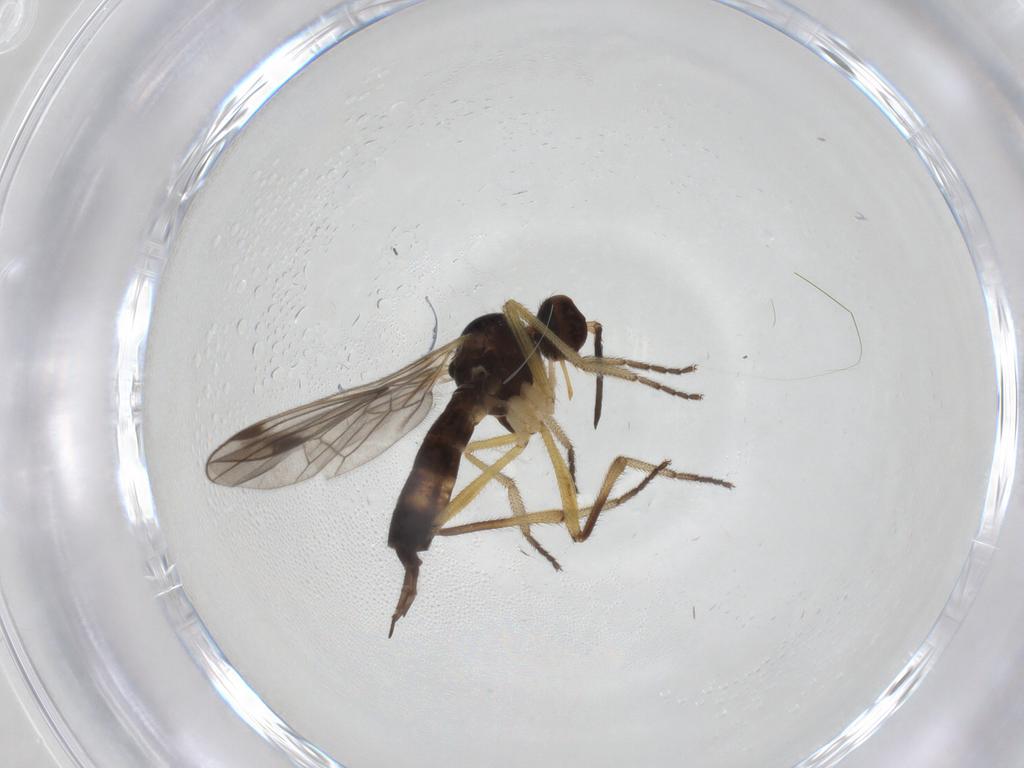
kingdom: Animalia
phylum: Arthropoda
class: Insecta
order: Diptera
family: Empididae
